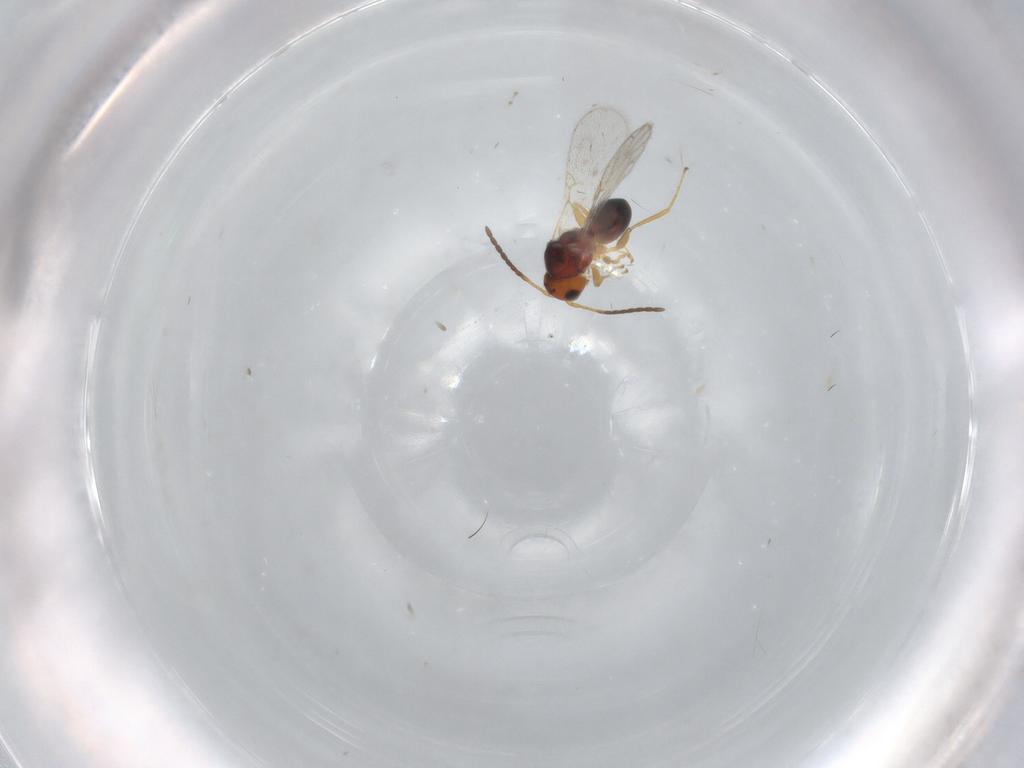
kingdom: Animalia
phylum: Arthropoda
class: Insecta
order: Hymenoptera
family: Figitidae
